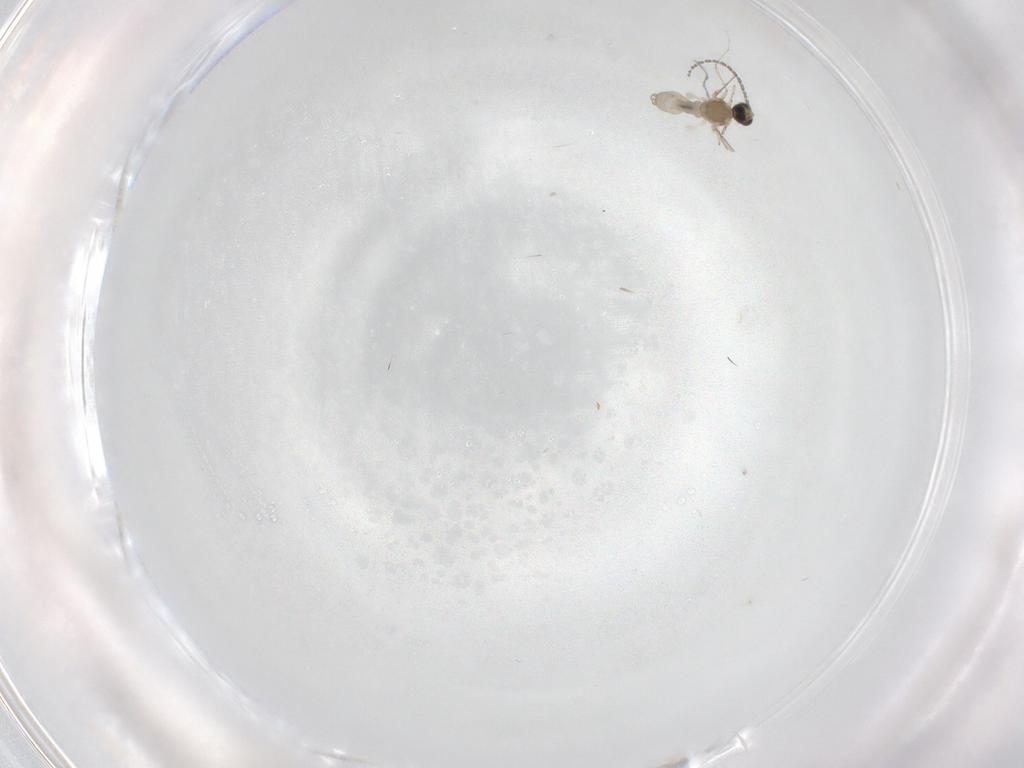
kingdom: Animalia
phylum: Arthropoda
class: Insecta
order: Diptera
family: Cecidomyiidae
